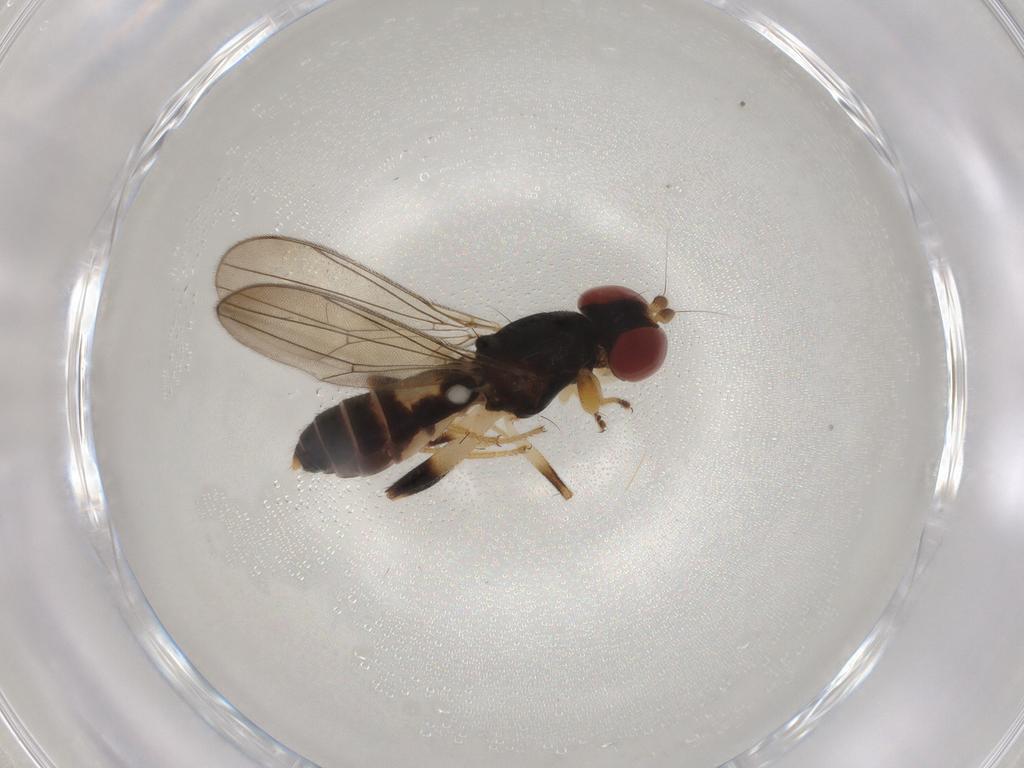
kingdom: Animalia
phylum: Arthropoda
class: Insecta
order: Diptera
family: Aulacigastridae
